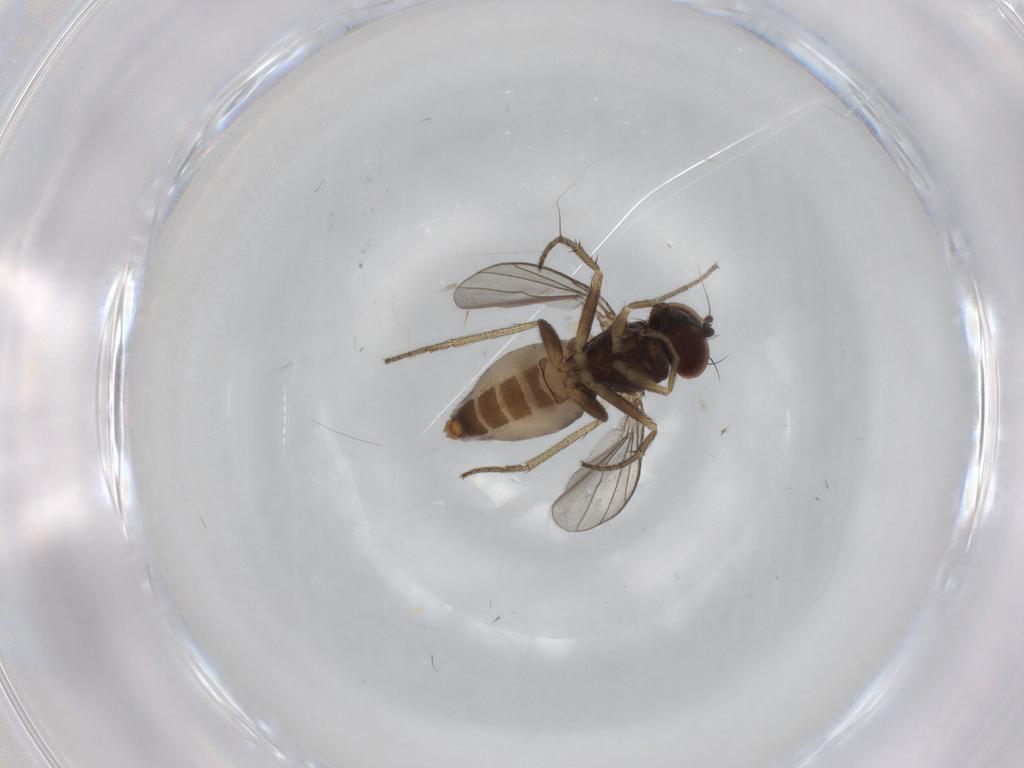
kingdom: Animalia
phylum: Arthropoda
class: Insecta
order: Diptera
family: Dolichopodidae
